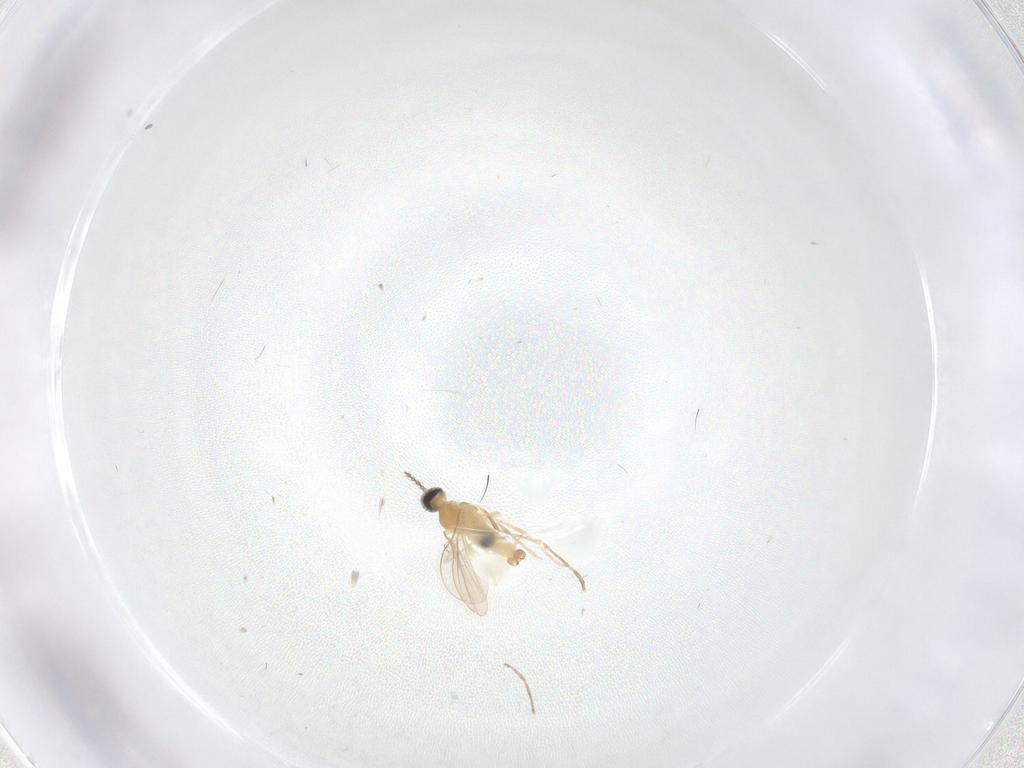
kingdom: Animalia
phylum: Arthropoda
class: Insecta
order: Diptera
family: Cecidomyiidae
